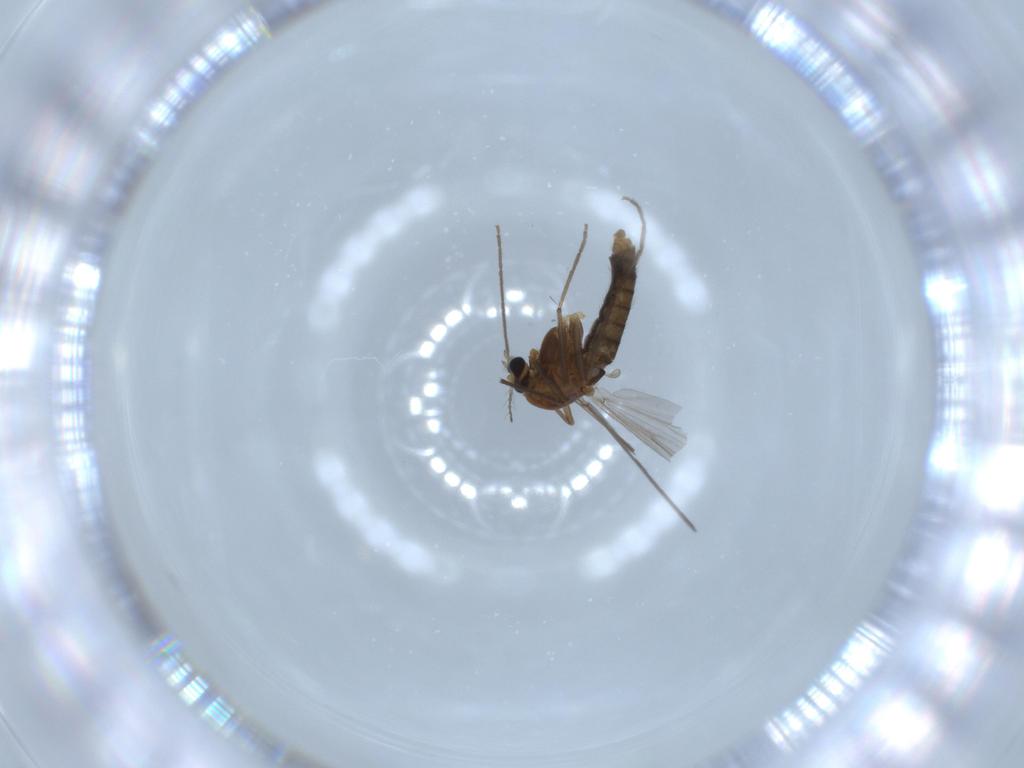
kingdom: Animalia
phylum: Arthropoda
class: Insecta
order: Diptera
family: Chironomidae
